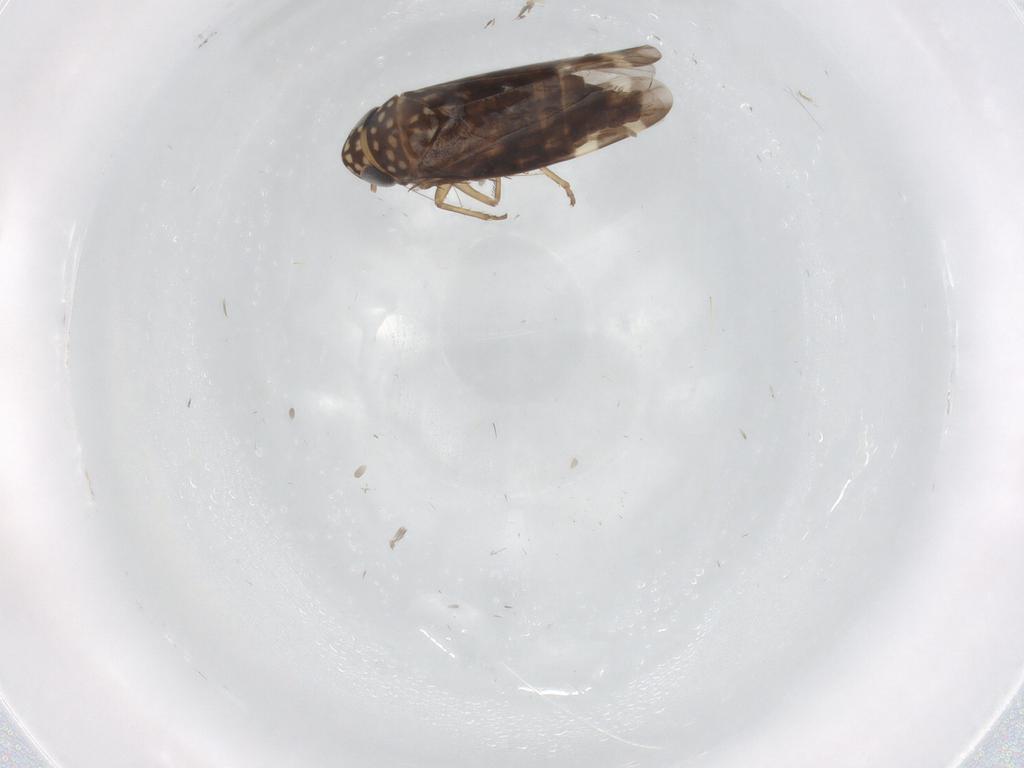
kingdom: Animalia
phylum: Arthropoda
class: Insecta
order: Hemiptera
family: Cicadellidae
